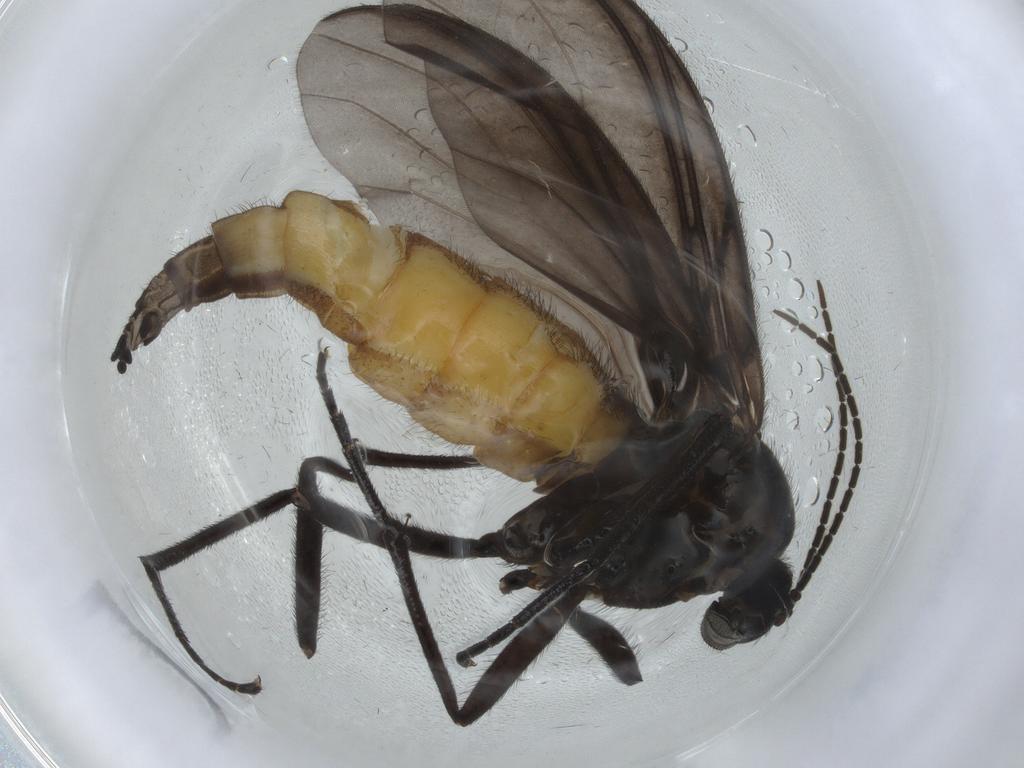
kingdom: Animalia
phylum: Arthropoda
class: Insecta
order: Diptera
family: Chironomidae
